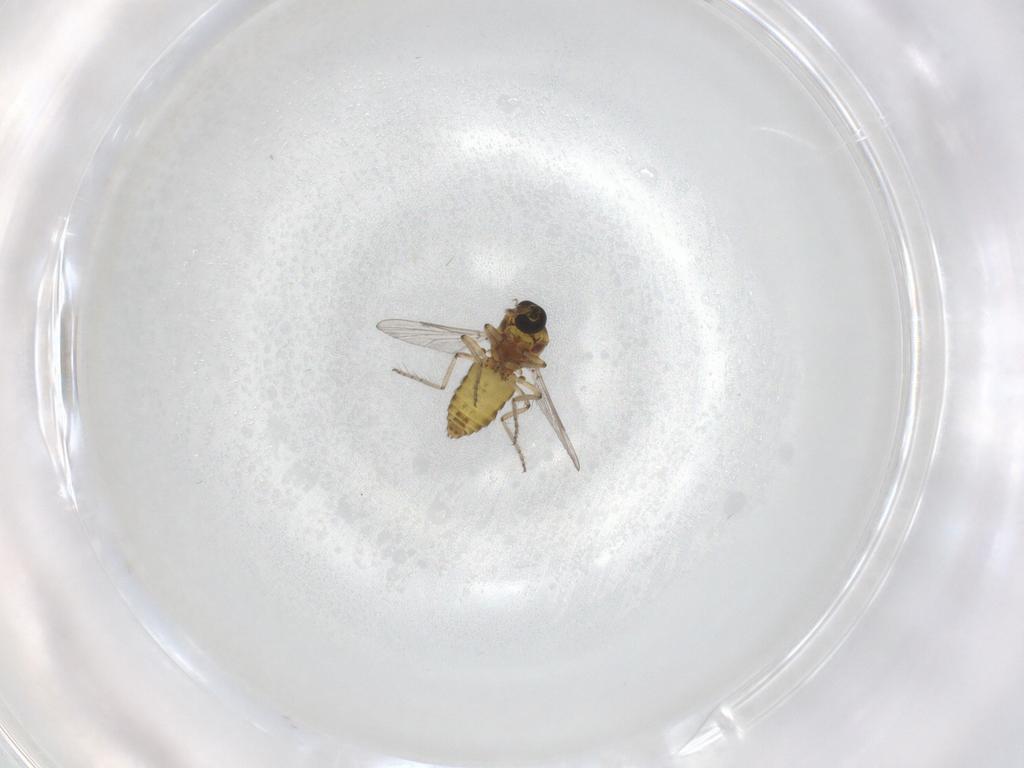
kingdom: Animalia
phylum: Arthropoda
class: Insecta
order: Diptera
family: Ceratopogonidae
